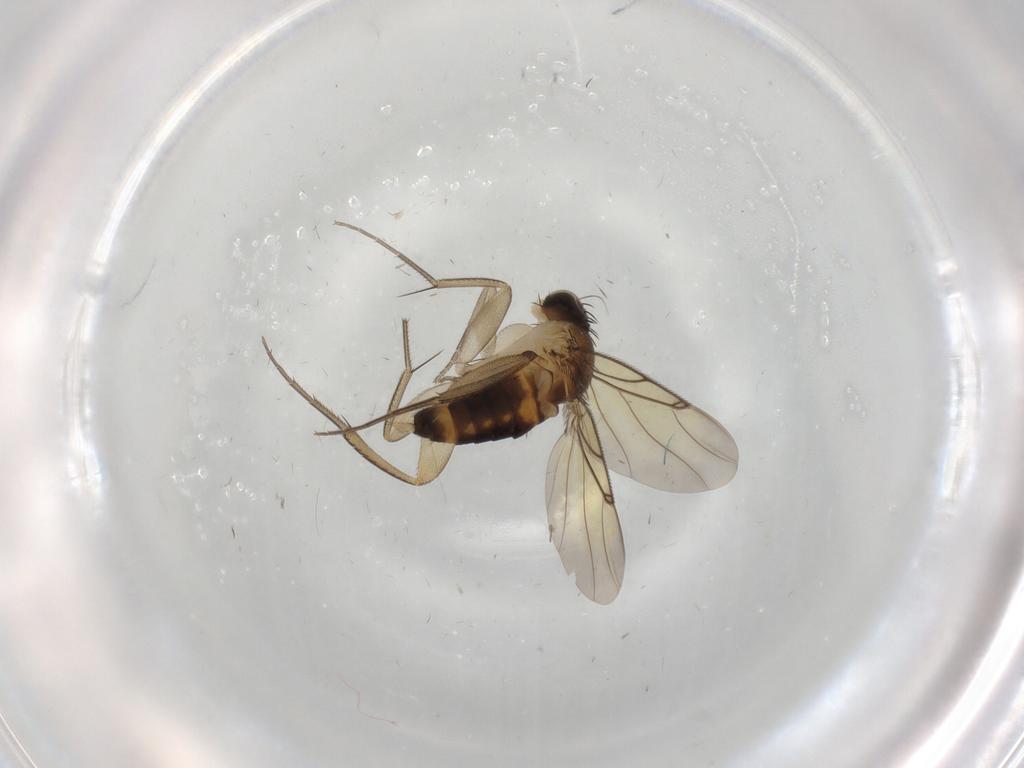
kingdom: Animalia
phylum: Arthropoda
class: Insecta
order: Diptera
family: Phoridae
